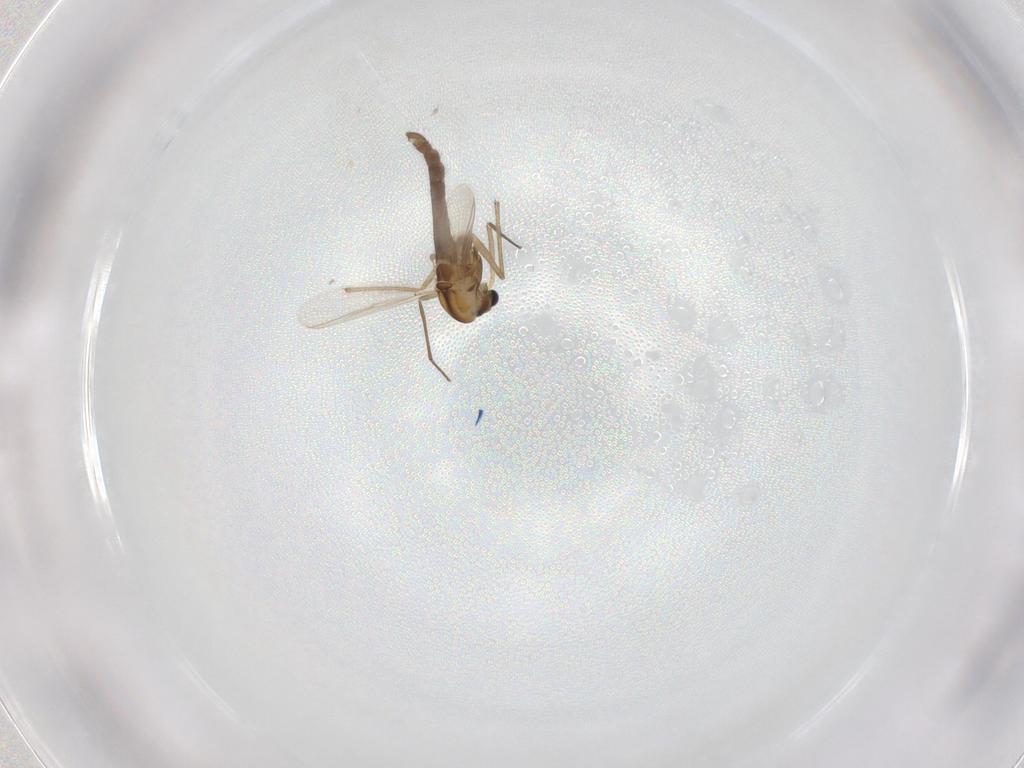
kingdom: Animalia
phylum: Arthropoda
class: Insecta
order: Diptera
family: Chironomidae
